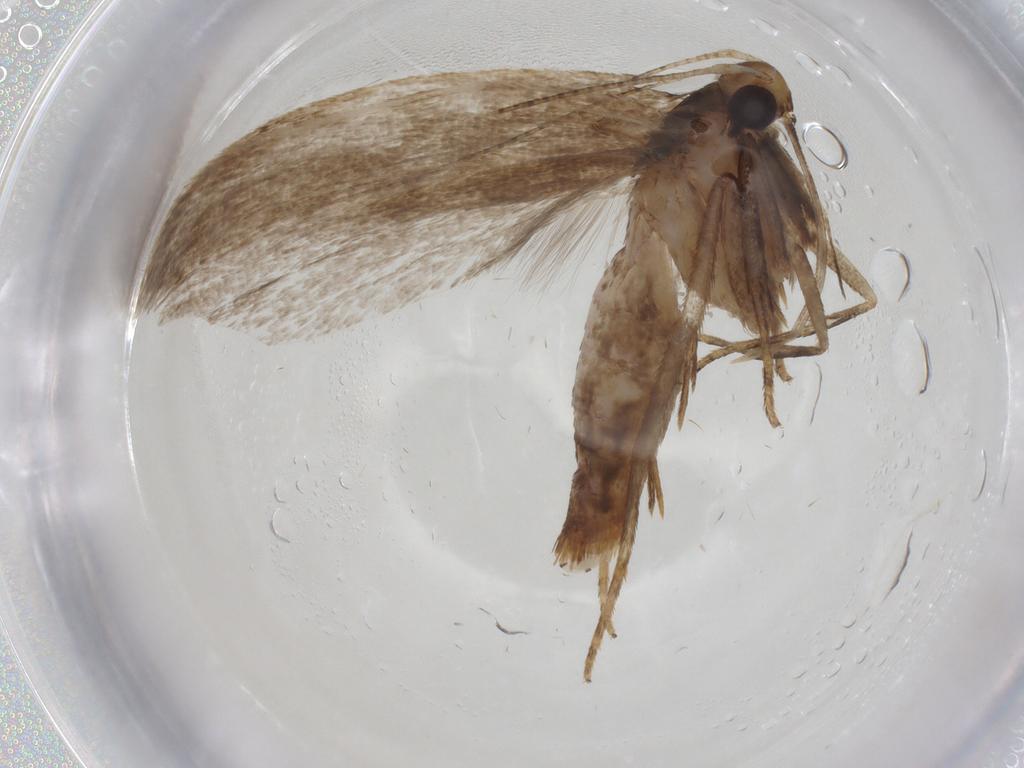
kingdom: Animalia
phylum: Arthropoda
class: Insecta
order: Lepidoptera
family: Gelechiidae
